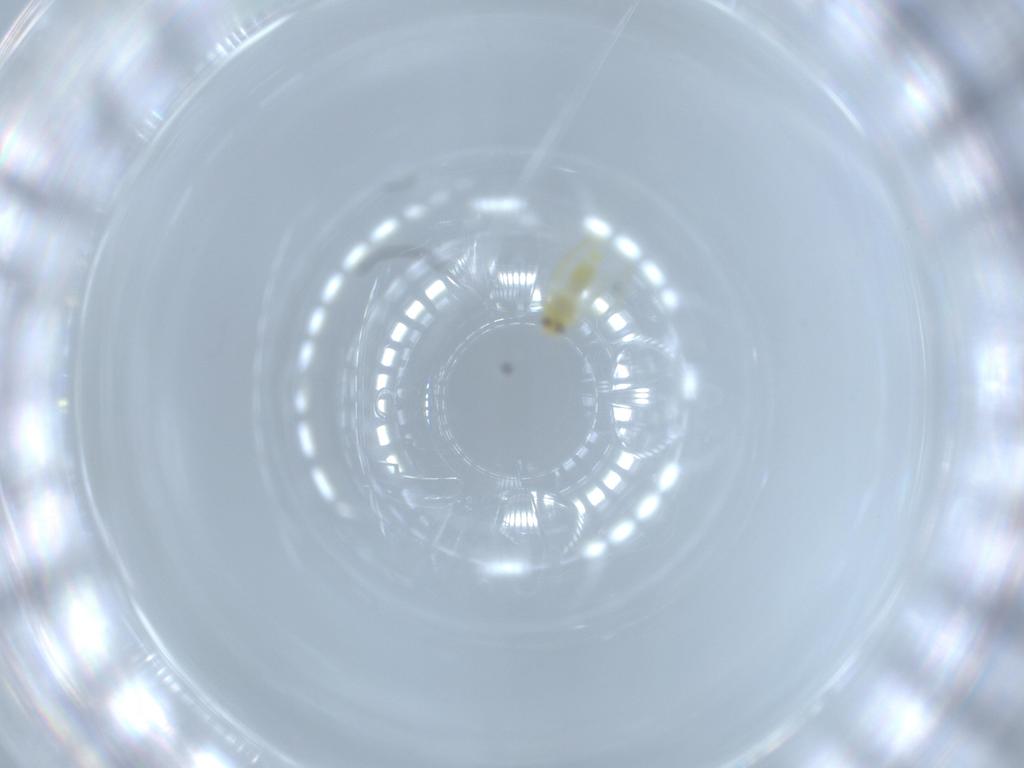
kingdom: Animalia
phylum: Arthropoda
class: Insecta
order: Hemiptera
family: Aleyrodidae
